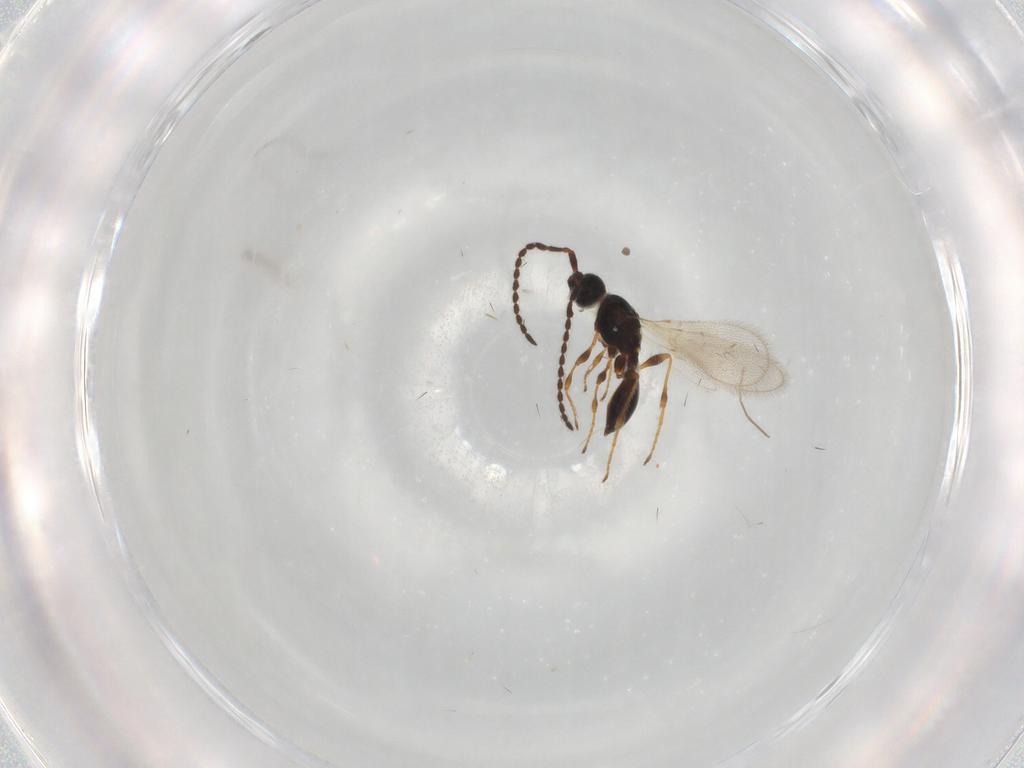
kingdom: Animalia
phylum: Arthropoda
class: Insecta
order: Hymenoptera
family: Diapriidae
